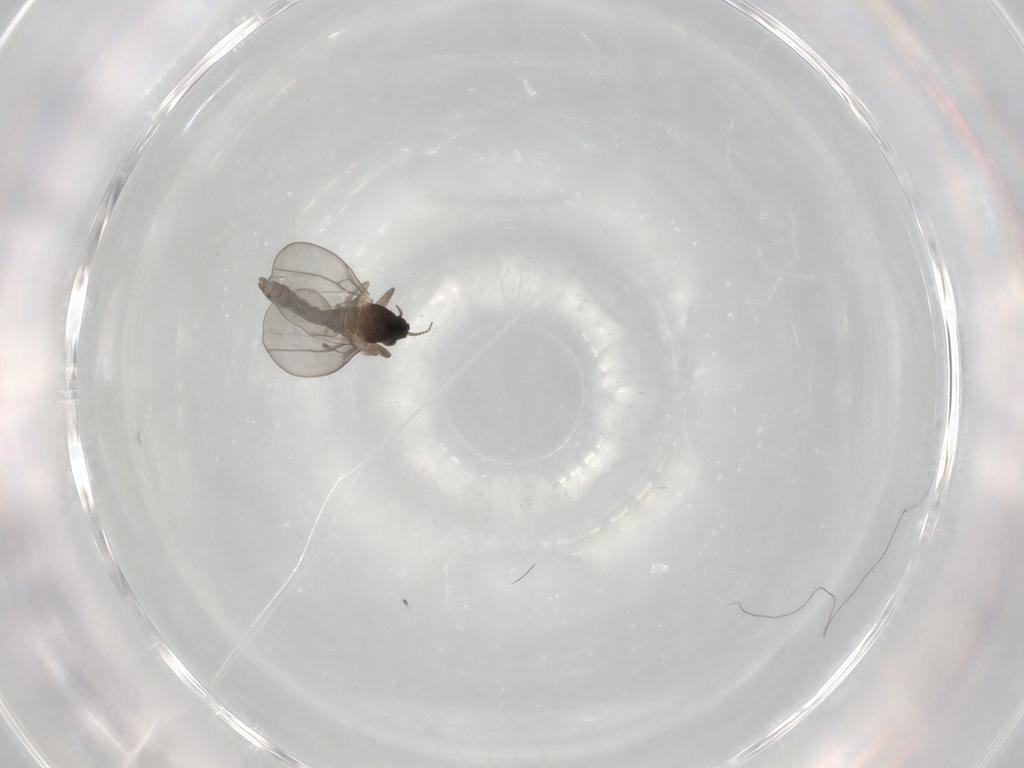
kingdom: Animalia
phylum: Arthropoda
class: Insecta
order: Diptera
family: Cecidomyiidae
